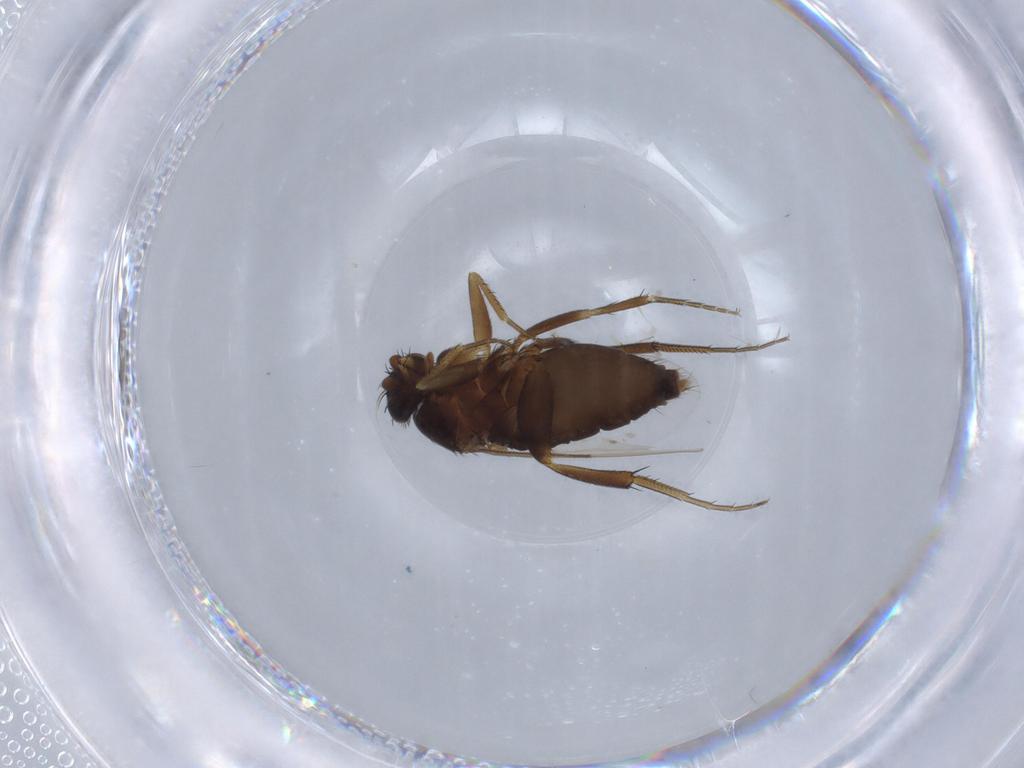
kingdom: Animalia
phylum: Arthropoda
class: Insecta
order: Diptera
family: Phoridae
